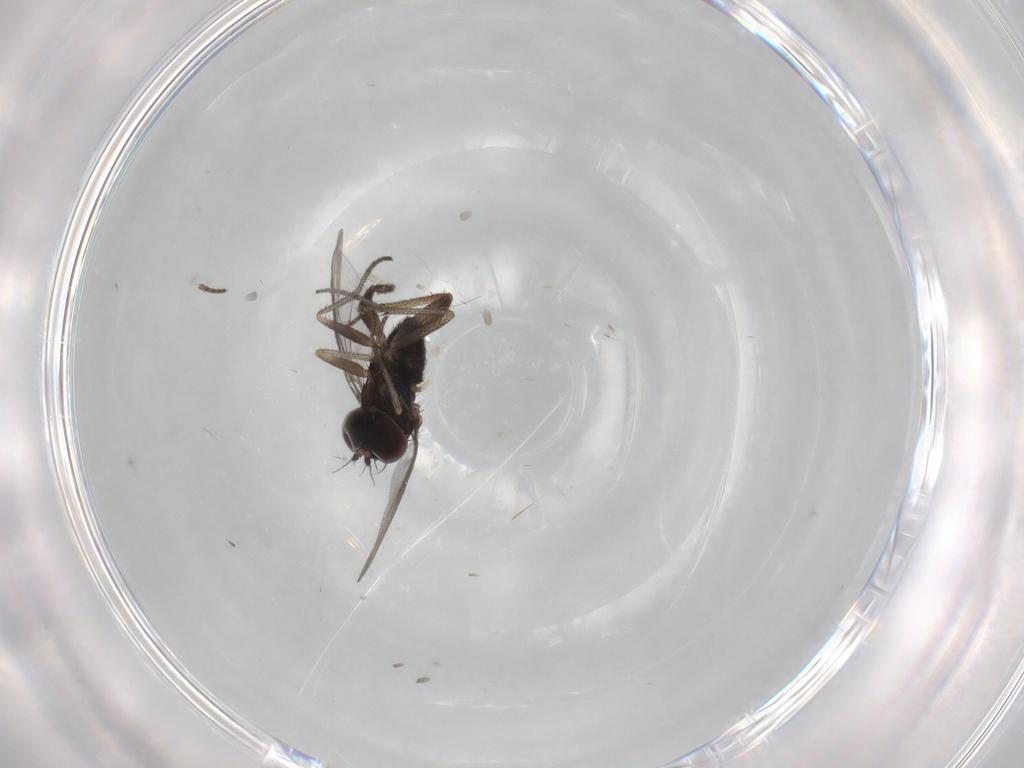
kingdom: Animalia
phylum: Arthropoda
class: Insecta
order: Diptera
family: Dolichopodidae
